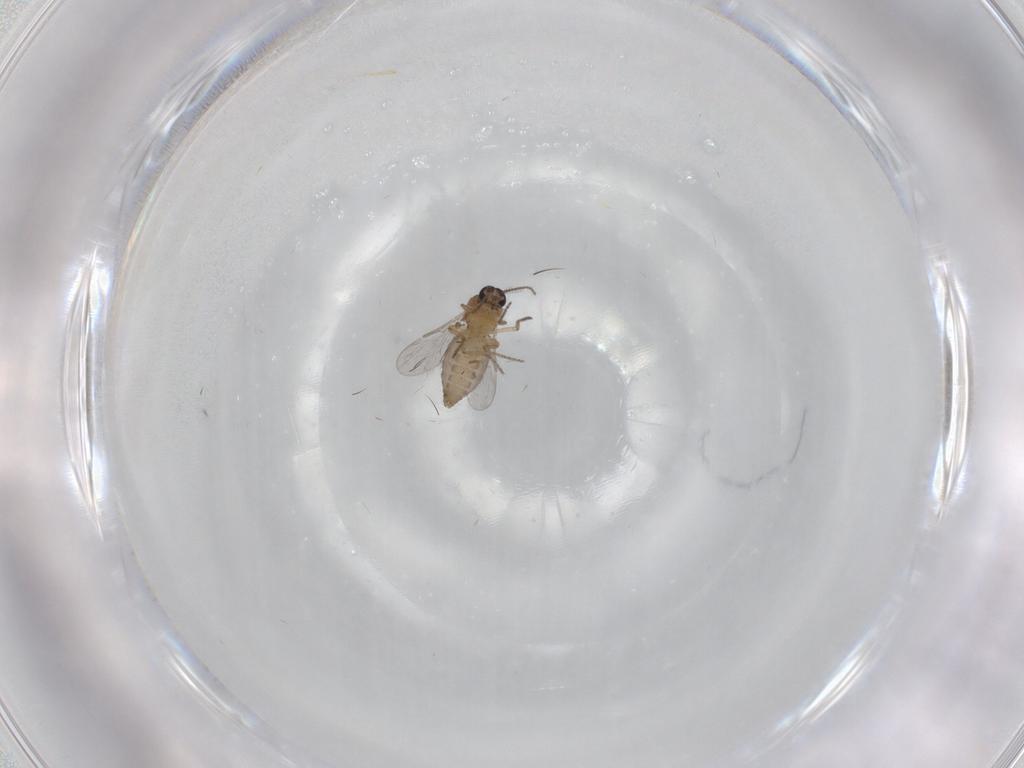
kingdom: Animalia
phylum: Arthropoda
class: Insecta
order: Diptera
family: Ceratopogonidae
